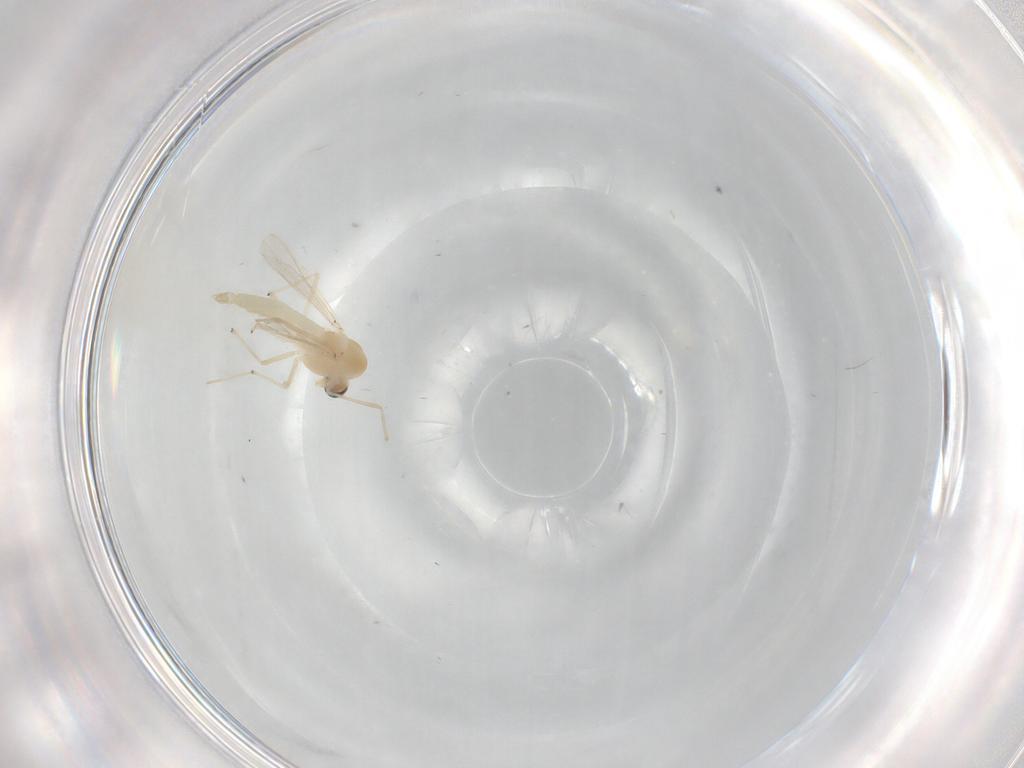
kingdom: Animalia
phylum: Arthropoda
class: Insecta
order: Diptera
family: Chironomidae
